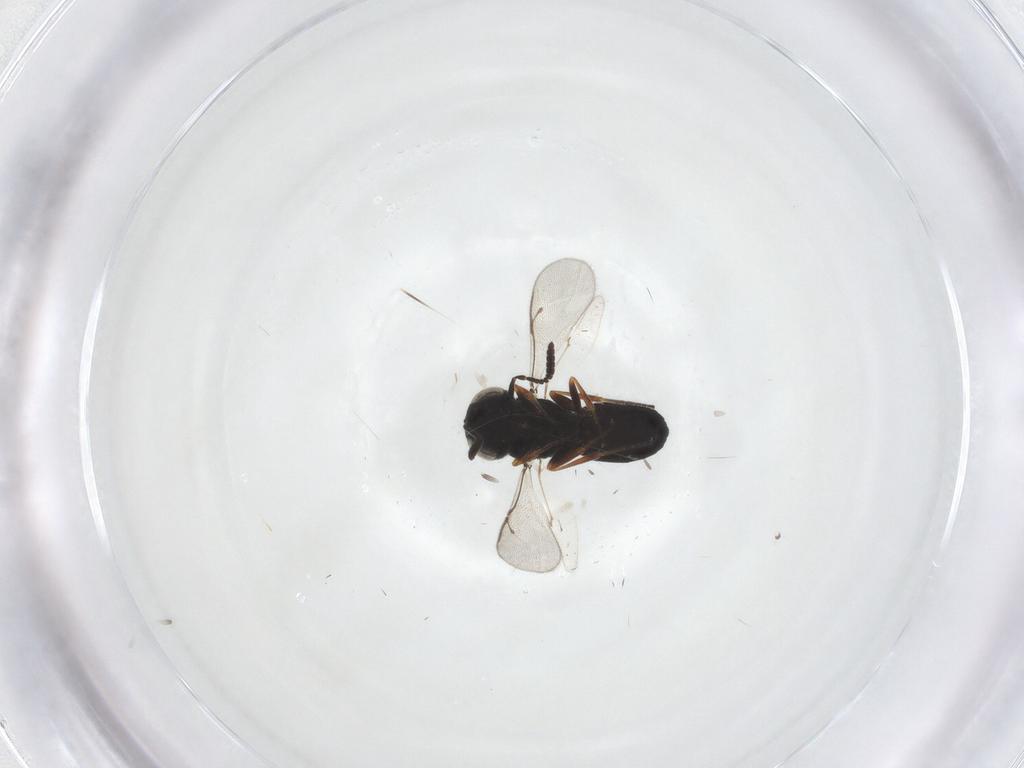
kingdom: Animalia
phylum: Arthropoda
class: Insecta
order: Hymenoptera
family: Scelionidae
